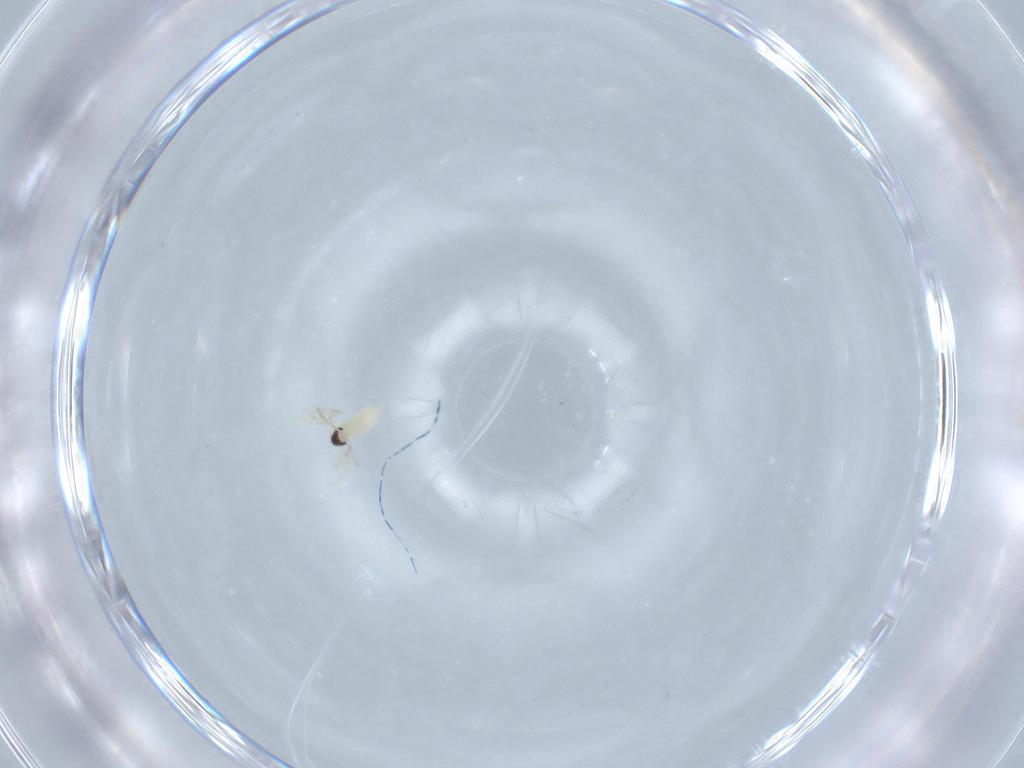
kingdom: Animalia
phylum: Arthropoda
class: Insecta
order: Diptera
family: Cecidomyiidae
